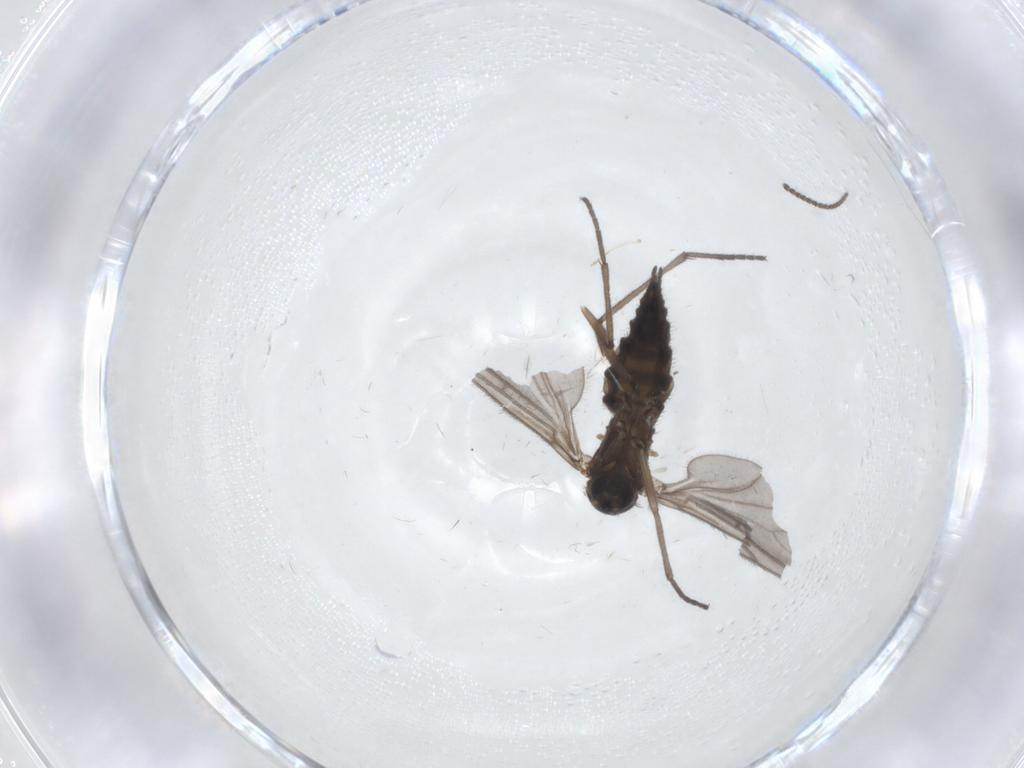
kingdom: Animalia
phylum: Arthropoda
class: Insecta
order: Diptera
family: Sciaridae
